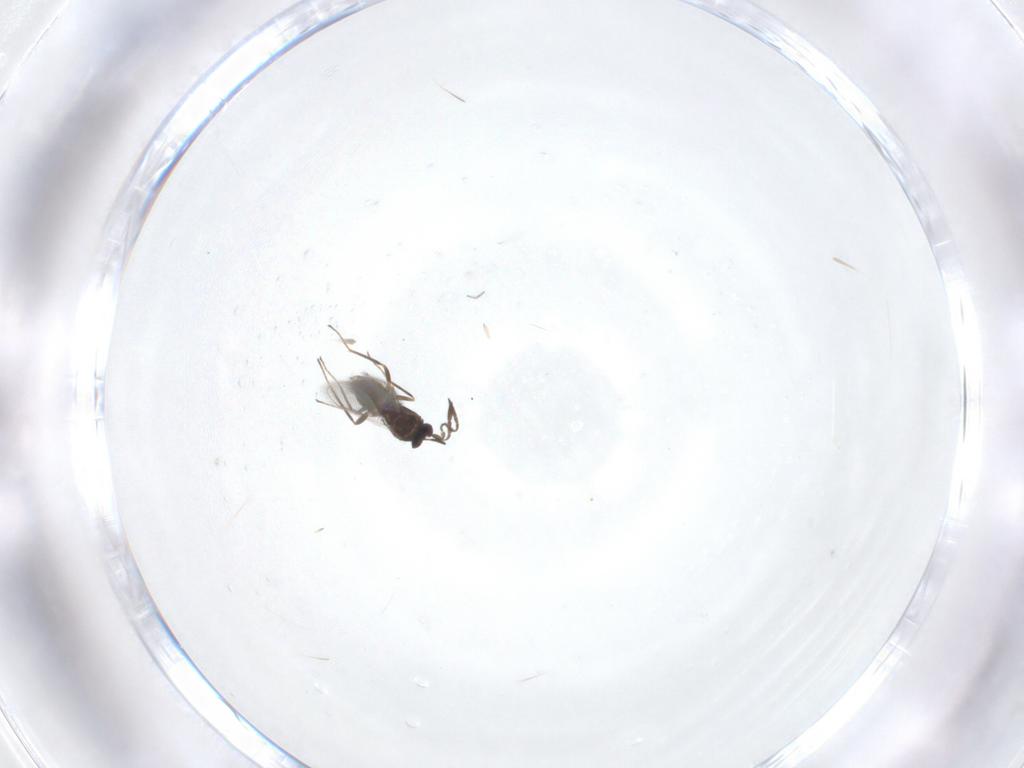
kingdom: Animalia
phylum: Arthropoda
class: Insecta
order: Hymenoptera
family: Mymaridae
